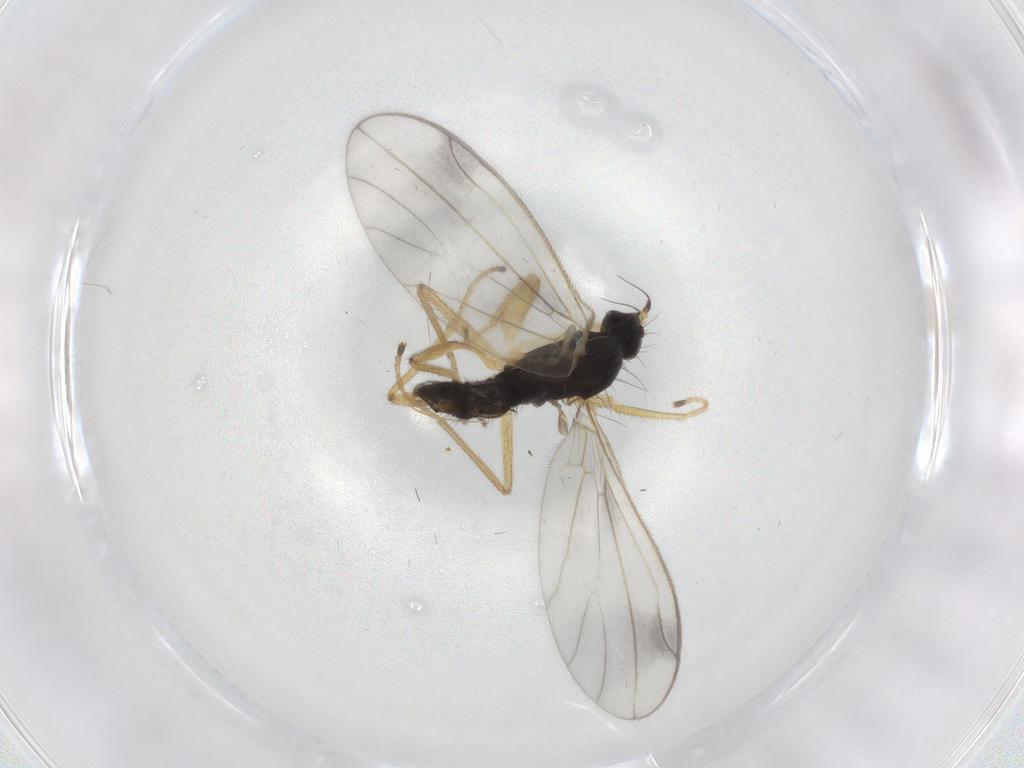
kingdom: Animalia
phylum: Arthropoda
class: Insecta
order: Diptera
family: Empididae
